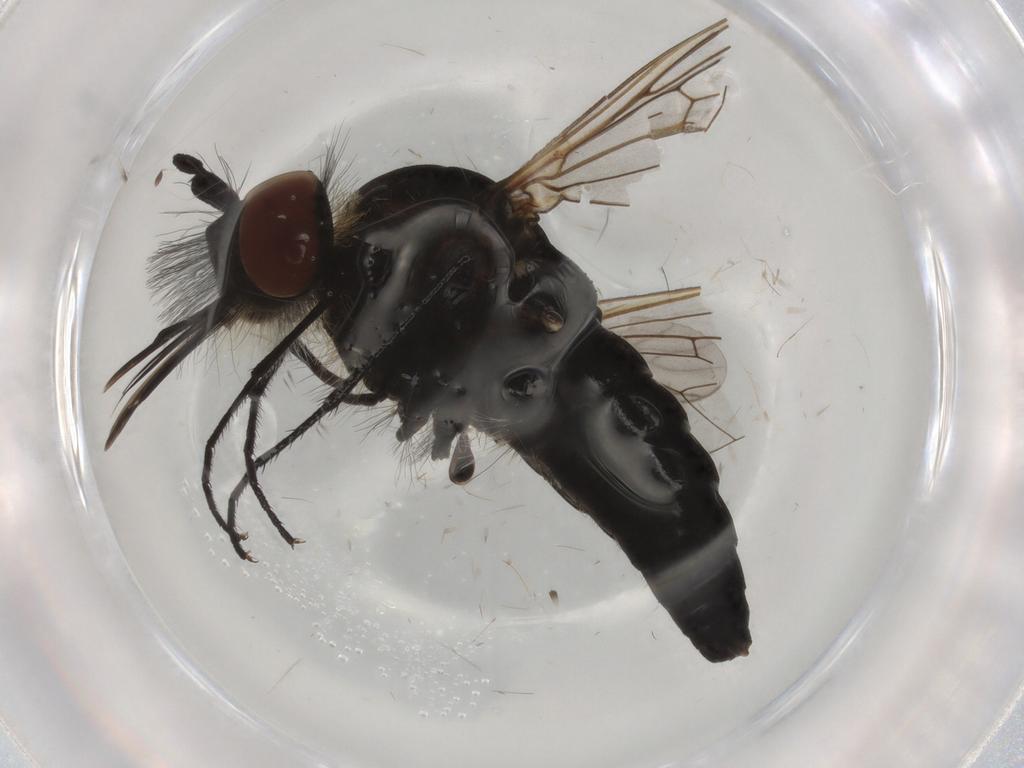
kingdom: Animalia
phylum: Arthropoda
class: Insecta
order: Diptera
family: Bombyliidae
